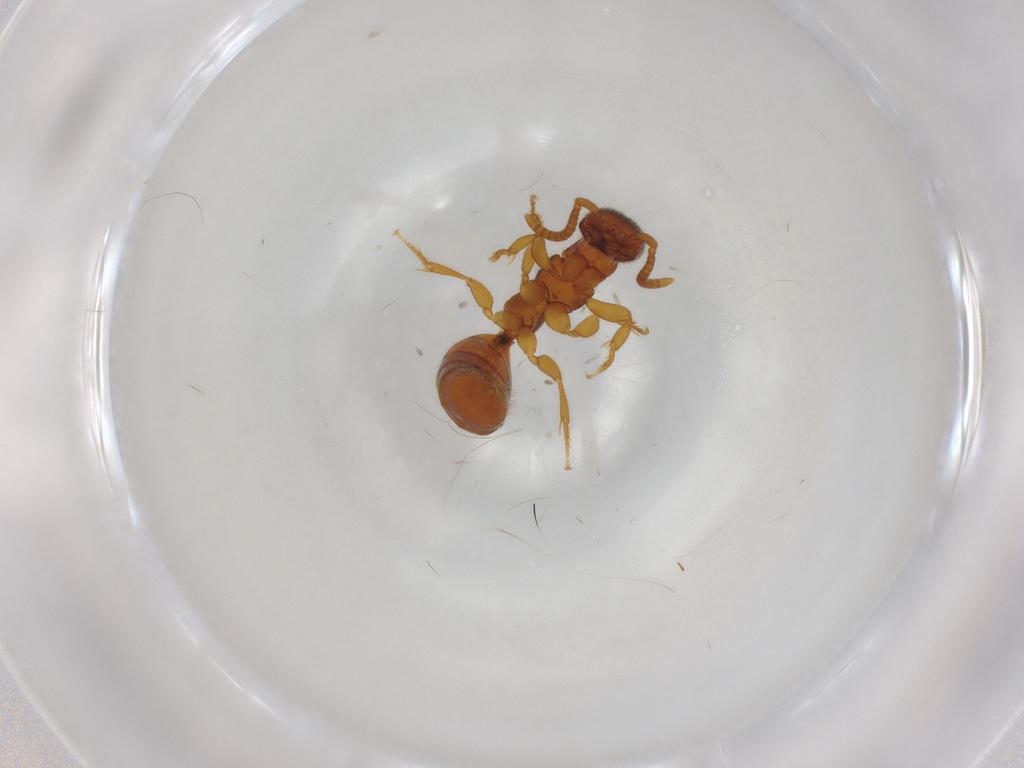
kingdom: Animalia
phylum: Arthropoda
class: Insecta
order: Hymenoptera
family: Bethylidae
